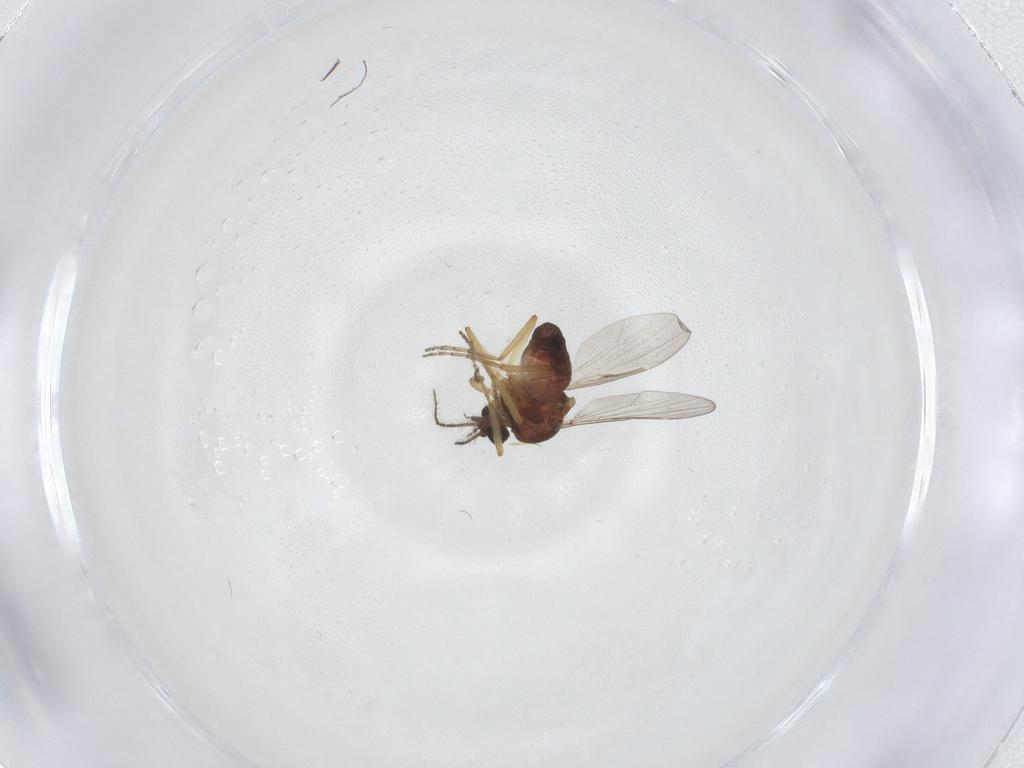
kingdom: Animalia
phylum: Arthropoda
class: Insecta
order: Diptera
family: Ceratopogonidae
